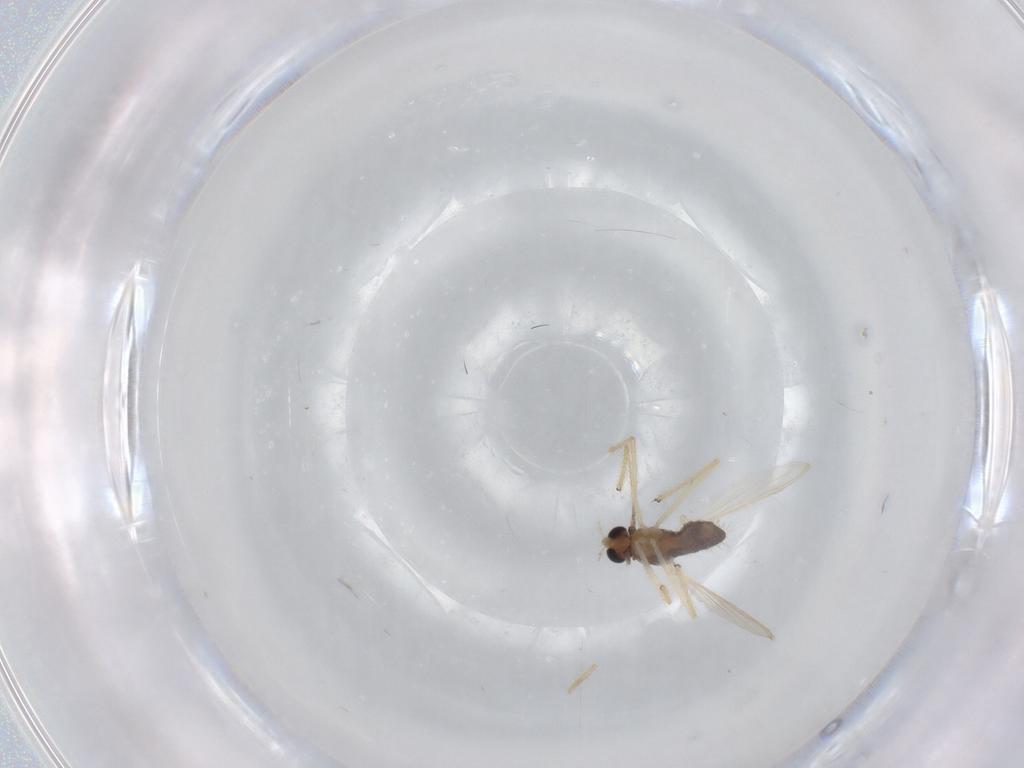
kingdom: Animalia
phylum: Arthropoda
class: Insecta
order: Diptera
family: Chironomidae
